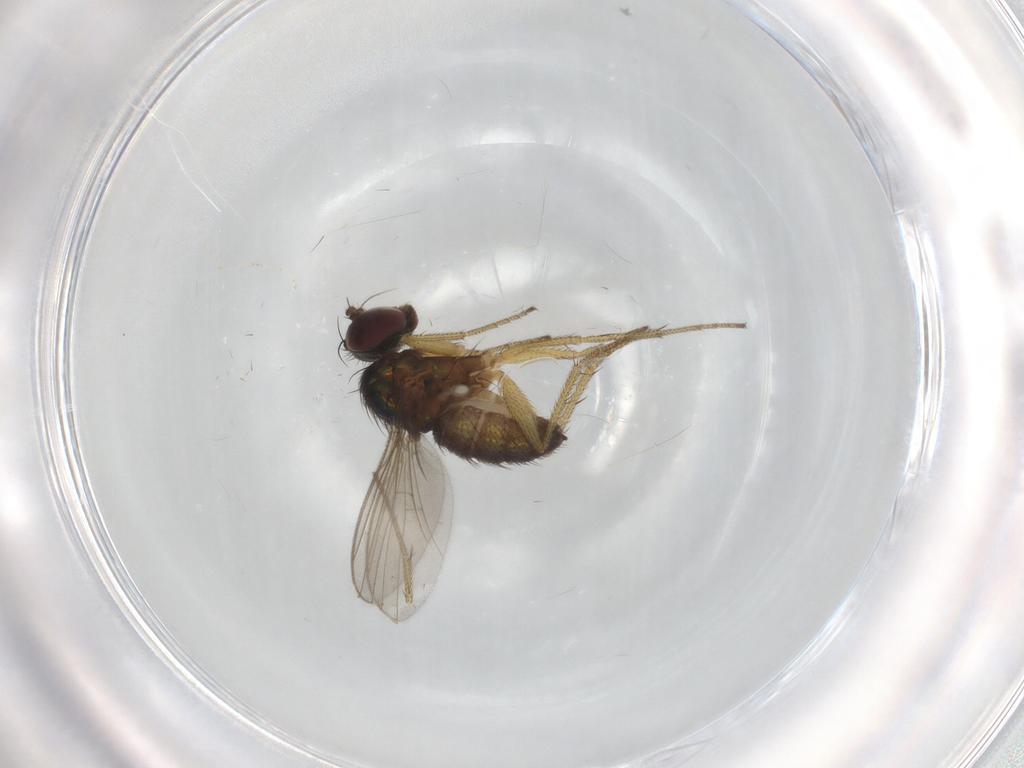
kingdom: Animalia
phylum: Arthropoda
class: Insecta
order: Diptera
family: Cecidomyiidae
